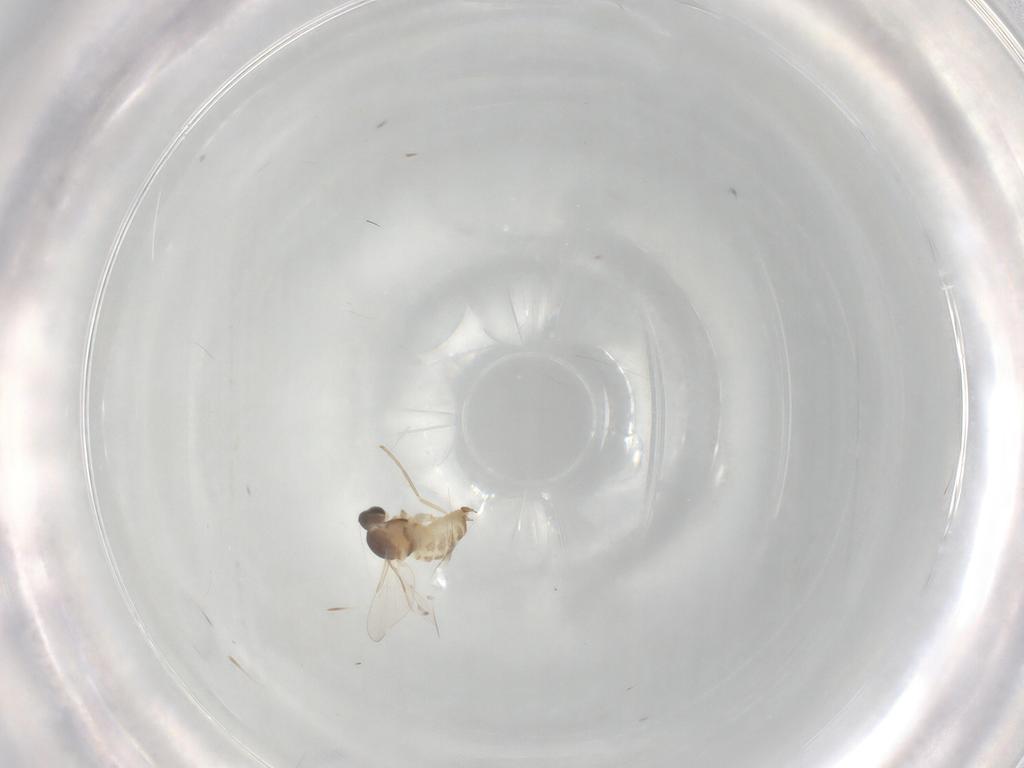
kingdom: Animalia
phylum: Arthropoda
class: Insecta
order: Diptera
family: Cecidomyiidae
